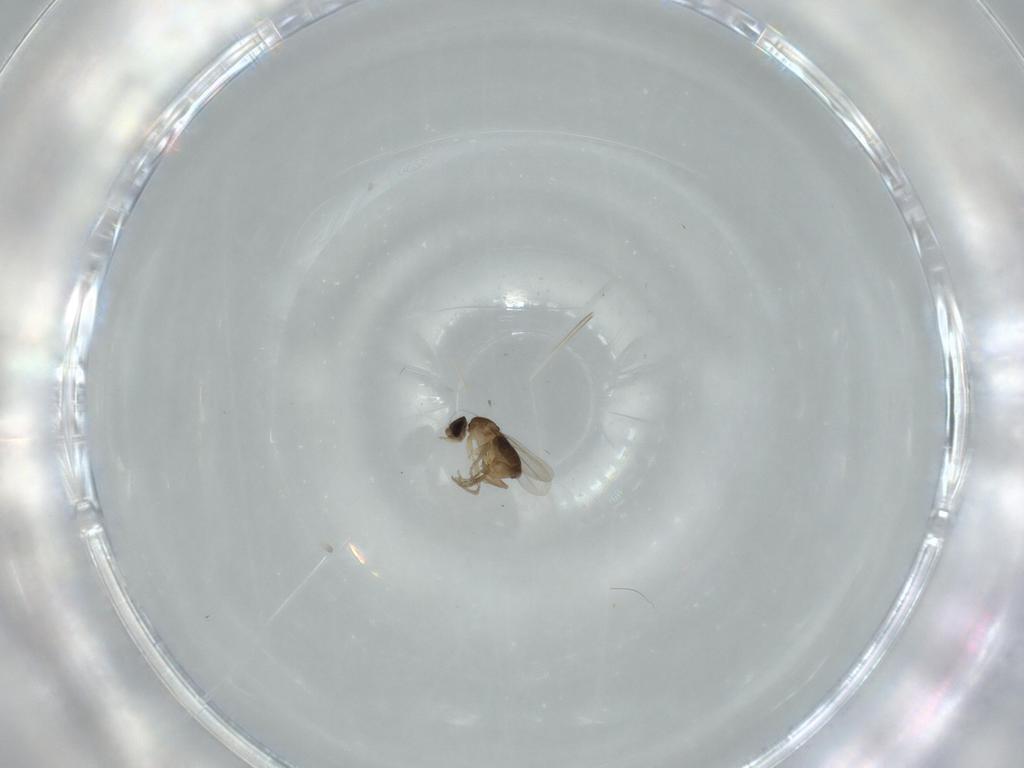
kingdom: Animalia
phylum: Arthropoda
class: Insecta
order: Diptera
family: Phoridae
